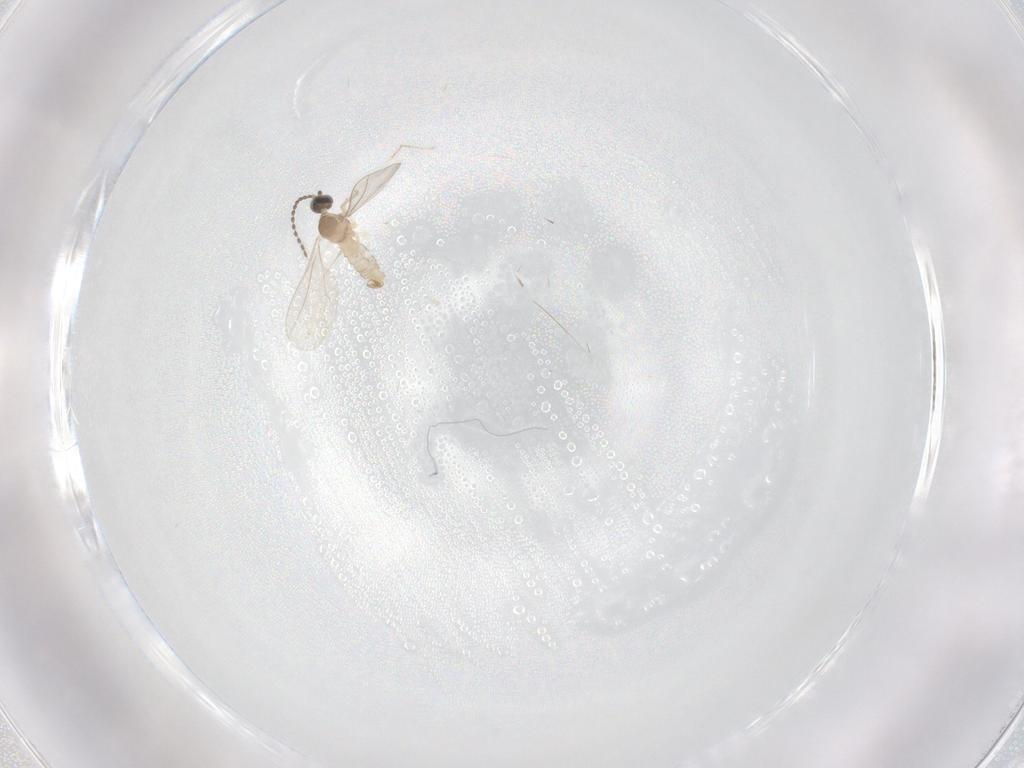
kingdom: Animalia
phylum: Arthropoda
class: Insecta
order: Diptera
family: Cecidomyiidae
